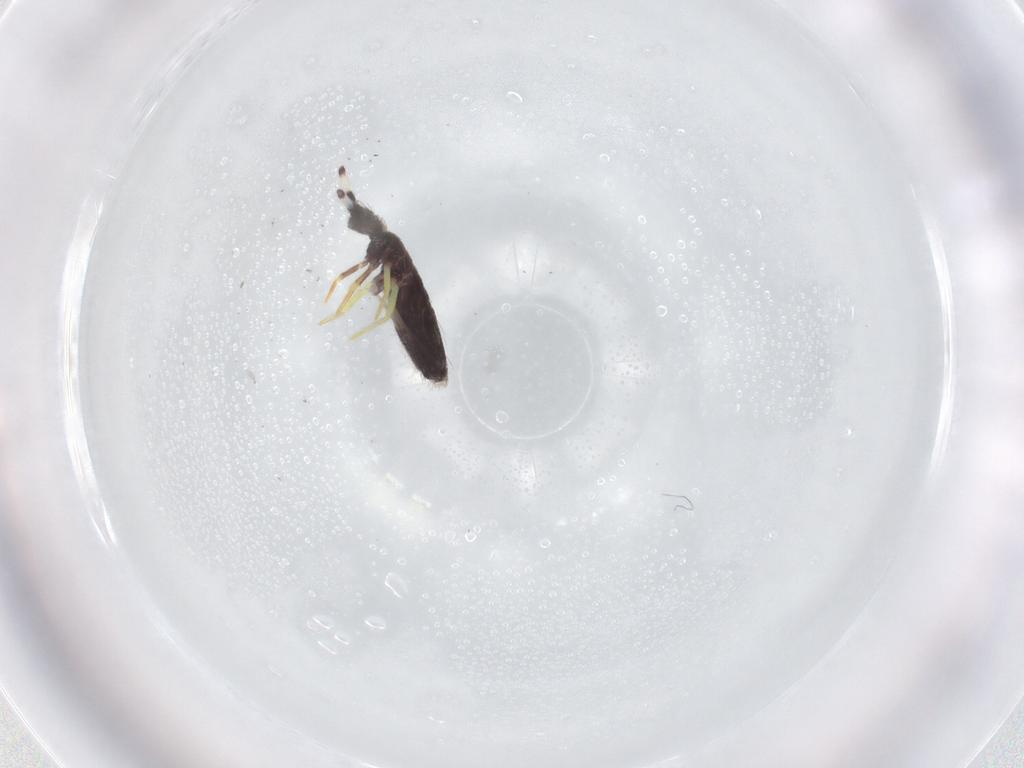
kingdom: Animalia
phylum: Arthropoda
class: Collembola
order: Entomobryomorpha
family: Entomobryidae
